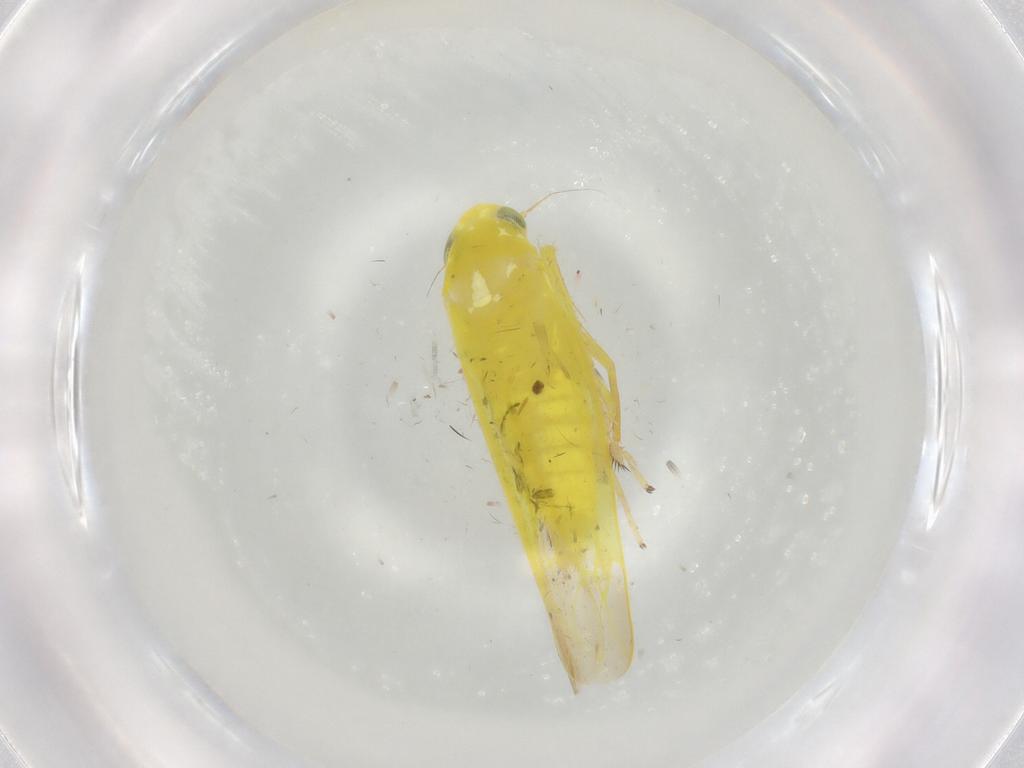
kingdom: Animalia
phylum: Arthropoda
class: Insecta
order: Hemiptera
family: Cicadellidae
